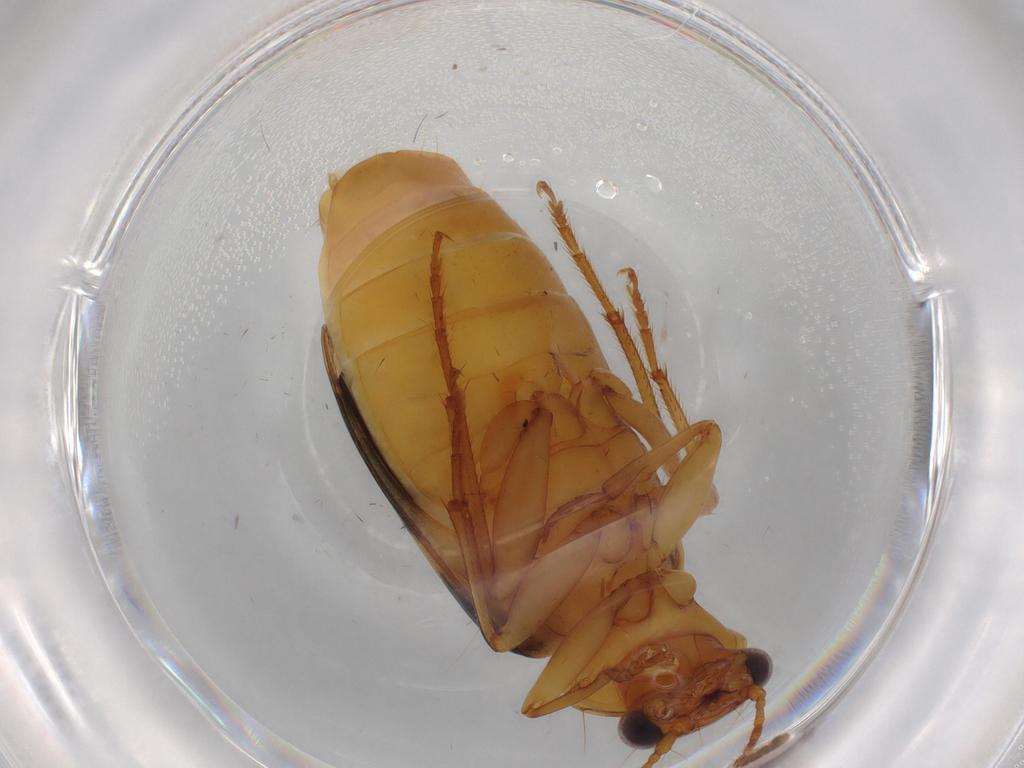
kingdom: Animalia
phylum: Arthropoda
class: Insecta
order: Coleoptera
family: Carabidae
